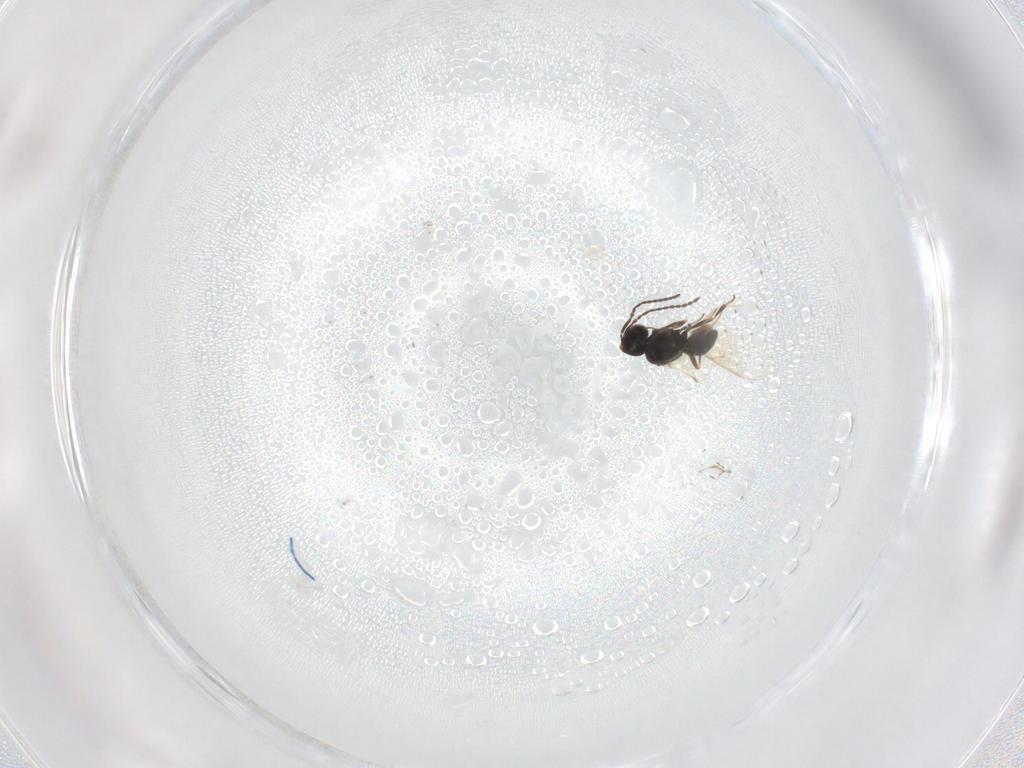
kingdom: Animalia
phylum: Arthropoda
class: Insecta
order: Hymenoptera
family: Scelionidae
